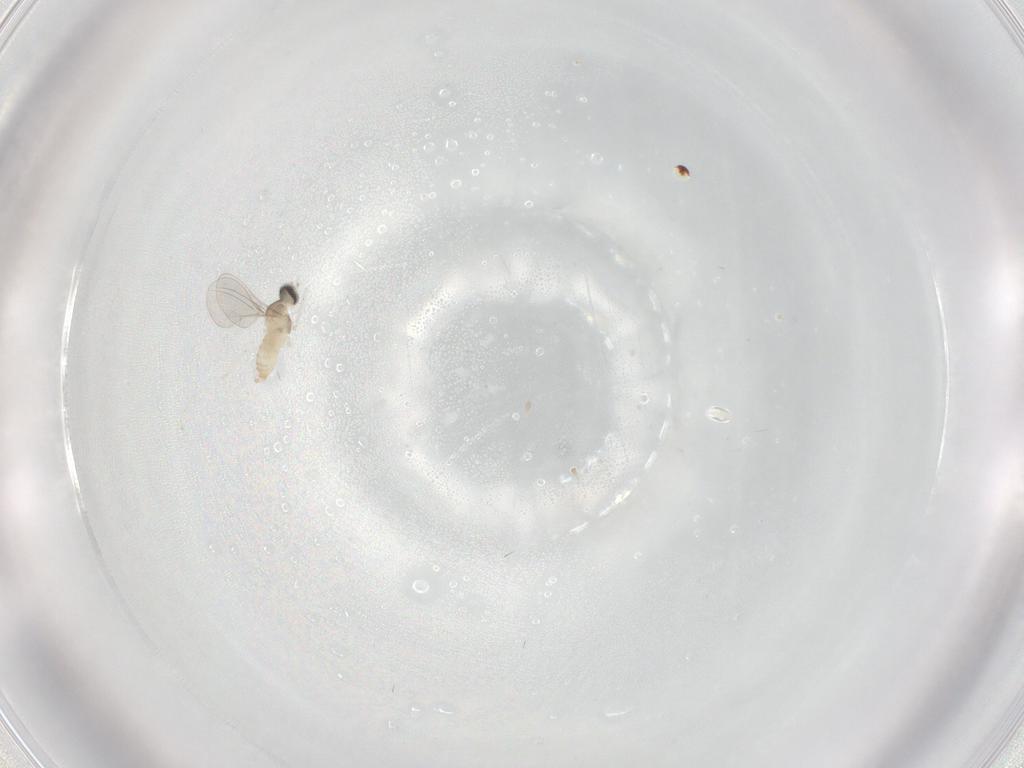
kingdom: Animalia
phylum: Arthropoda
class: Insecta
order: Diptera
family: Cecidomyiidae
